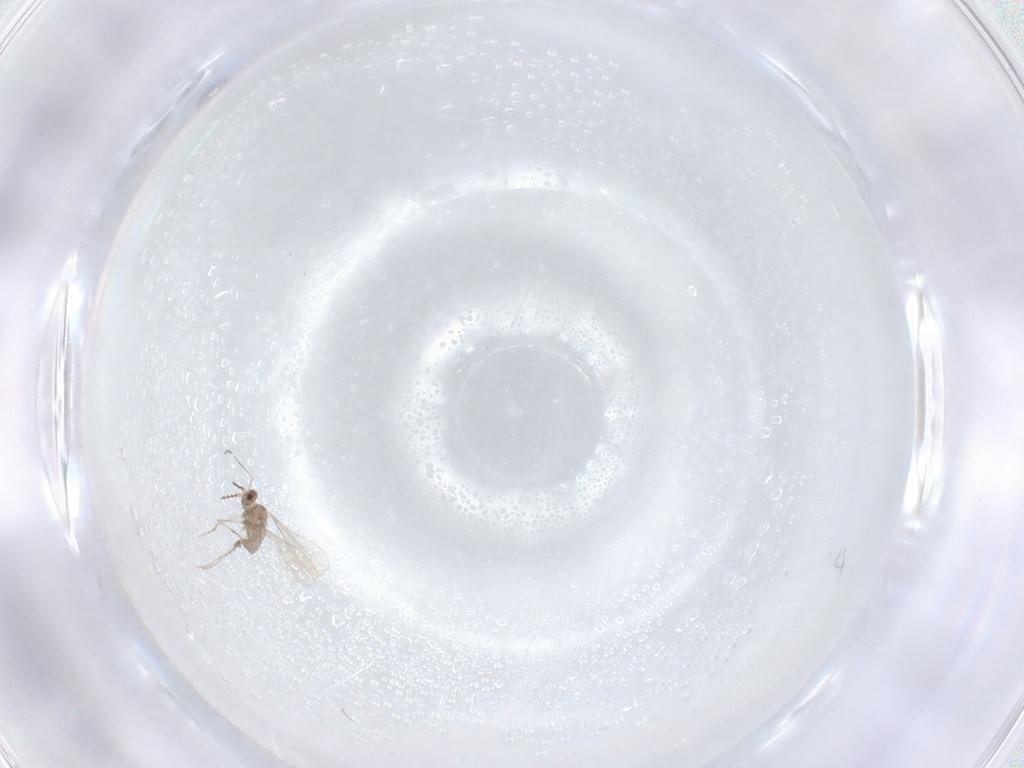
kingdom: Animalia
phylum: Arthropoda
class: Insecta
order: Diptera
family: Cecidomyiidae
